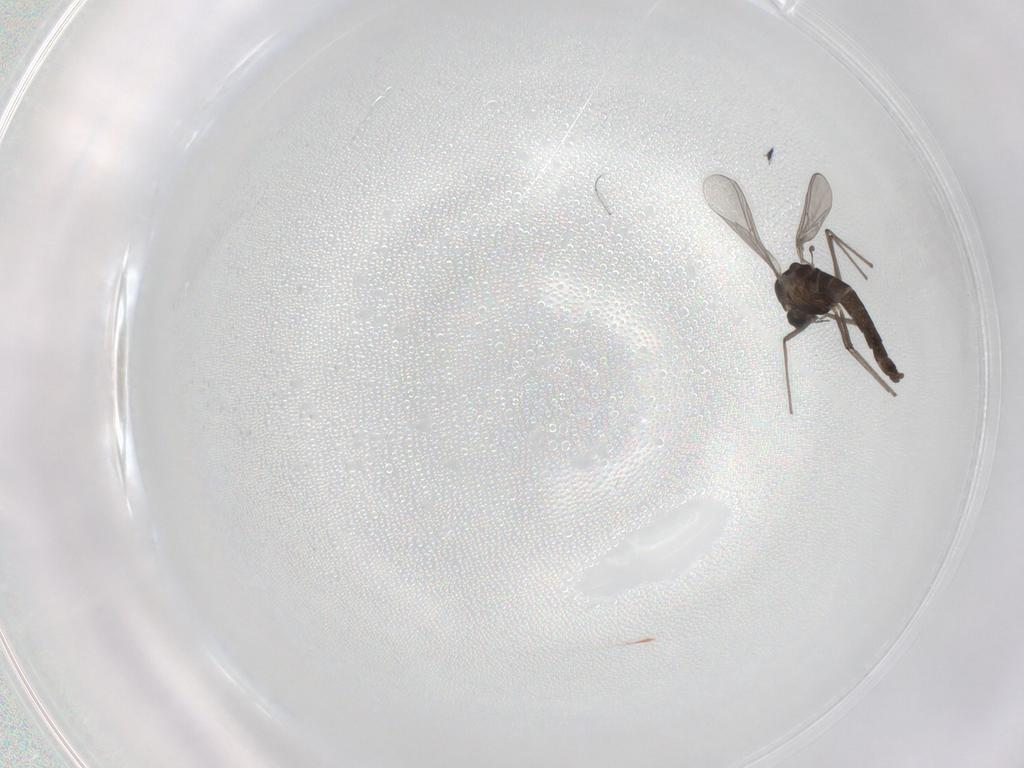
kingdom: Animalia
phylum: Arthropoda
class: Insecta
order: Diptera
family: Chironomidae
